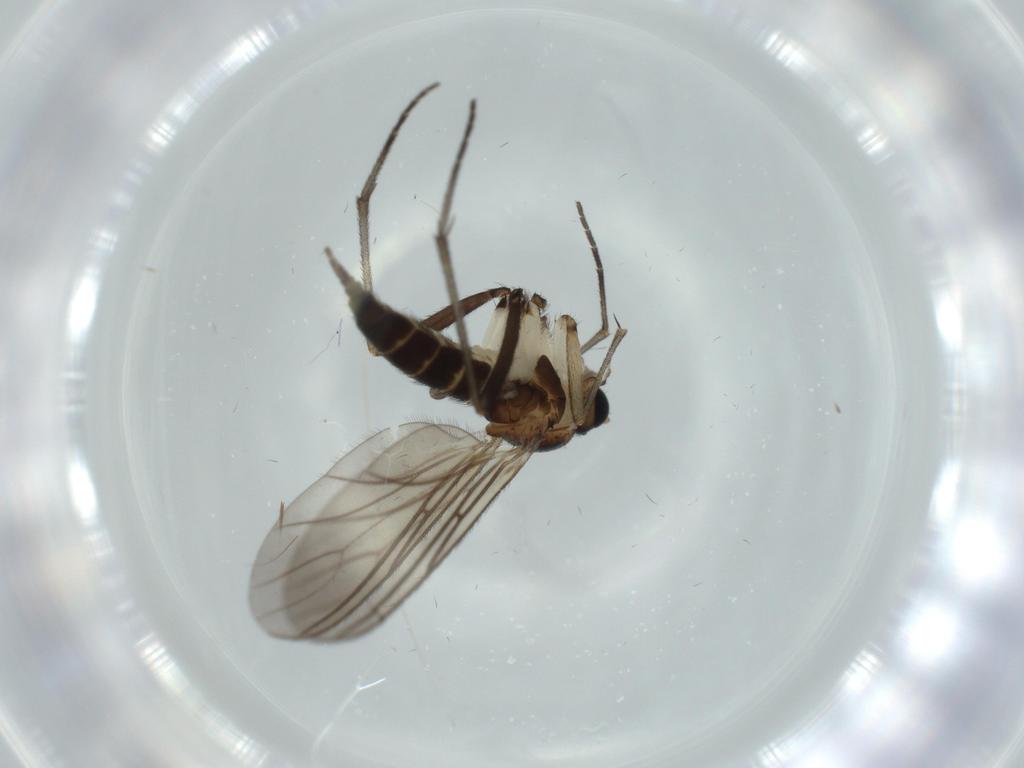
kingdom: Animalia
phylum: Arthropoda
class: Insecta
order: Diptera
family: Sciaridae
